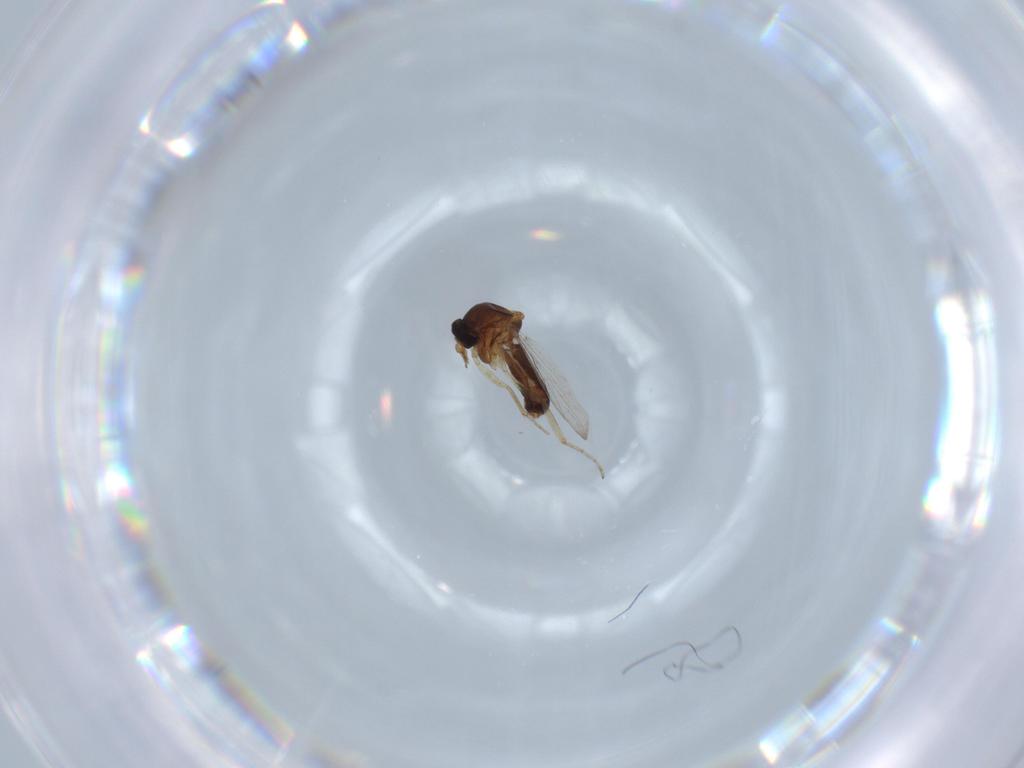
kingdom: Animalia
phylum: Arthropoda
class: Insecta
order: Diptera
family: Ceratopogonidae
